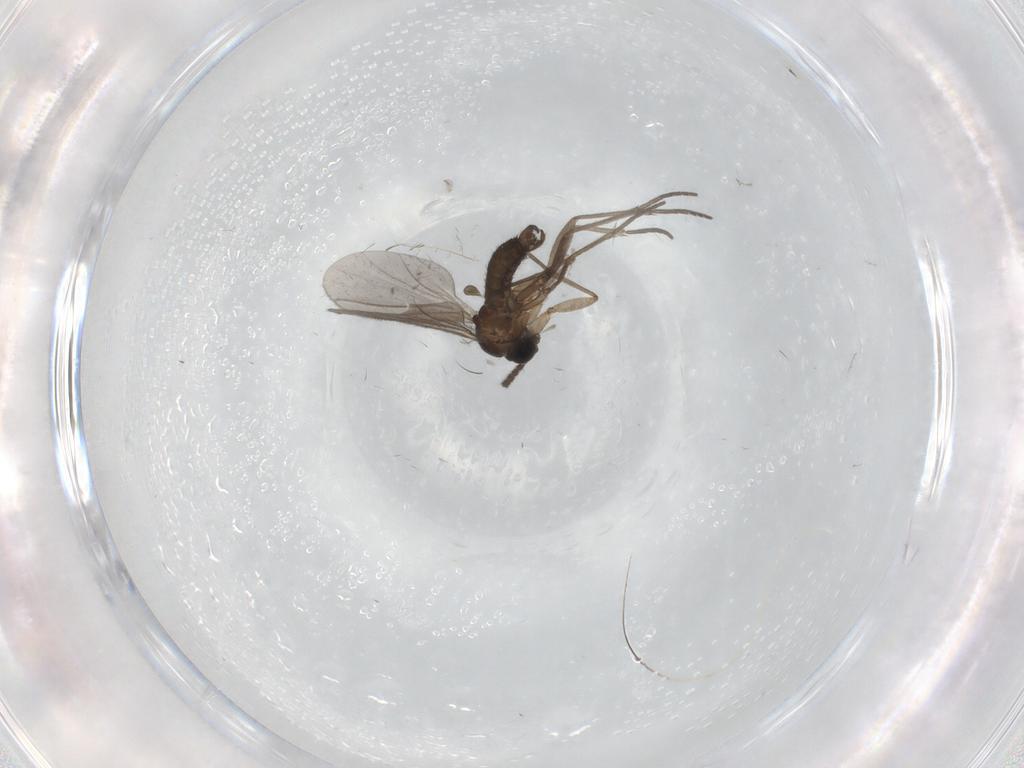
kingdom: Animalia
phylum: Arthropoda
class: Insecta
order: Diptera
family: Sciaridae
